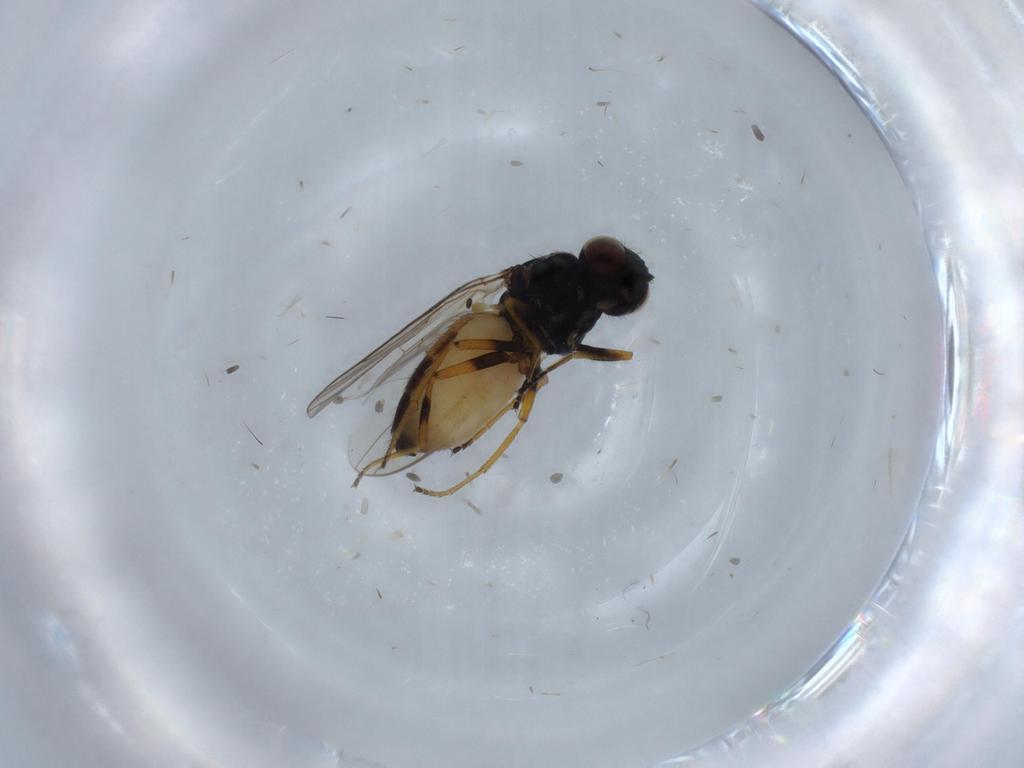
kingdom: Animalia
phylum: Arthropoda
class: Insecta
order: Diptera
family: Chloropidae
